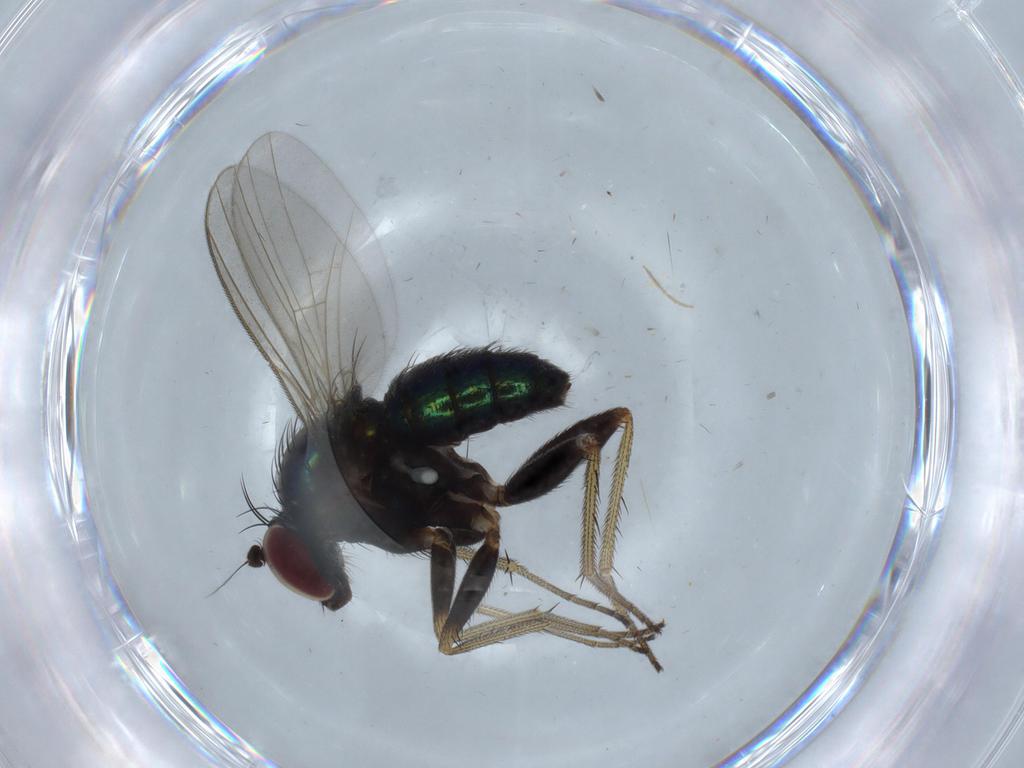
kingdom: Animalia
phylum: Arthropoda
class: Insecta
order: Diptera
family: Dolichopodidae
